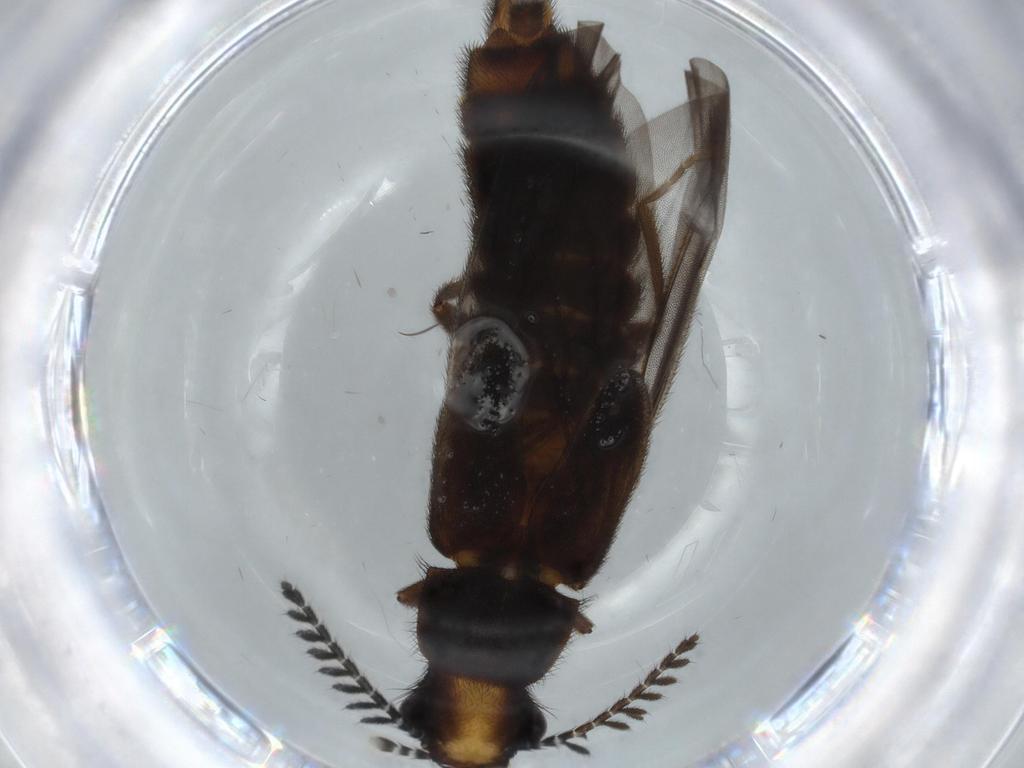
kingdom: Animalia
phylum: Arthropoda
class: Insecta
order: Coleoptera
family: Phengodidae
